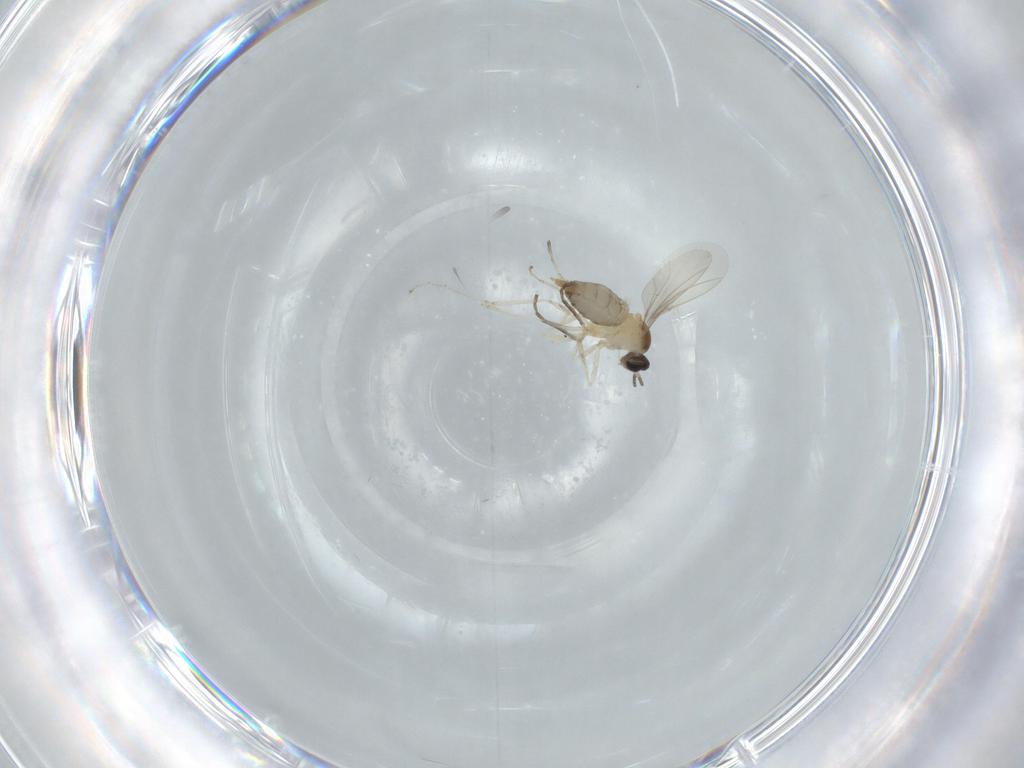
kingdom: Animalia
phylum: Arthropoda
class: Insecta
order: Diptera
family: Cecidomyiidae
